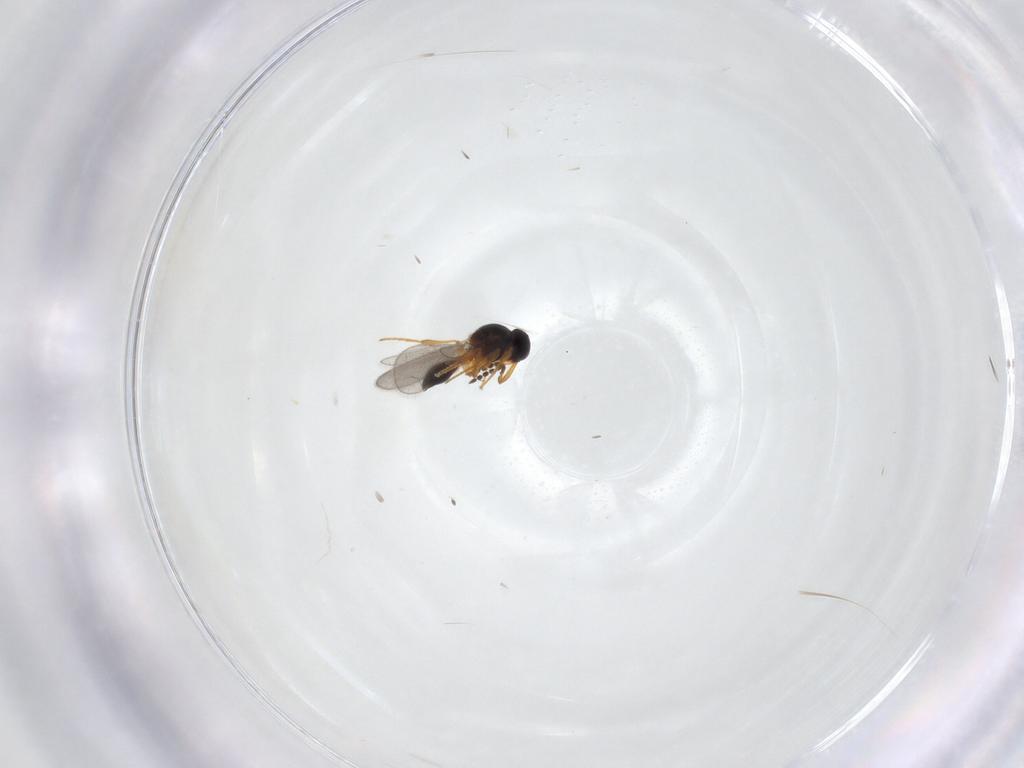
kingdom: Animalia
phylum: Arthropoda
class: Insecta
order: Hymenoptera
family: Platygastridae
